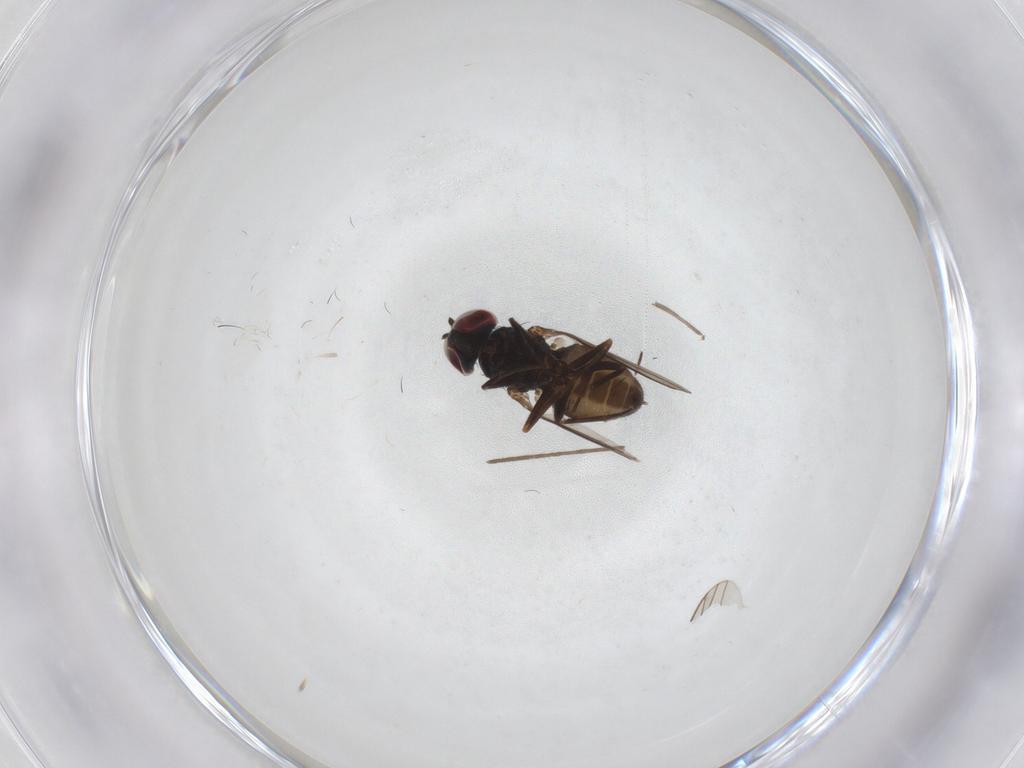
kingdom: Animalia
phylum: Arthropoda
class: Insecta
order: Diptera
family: Dolichopodidae
